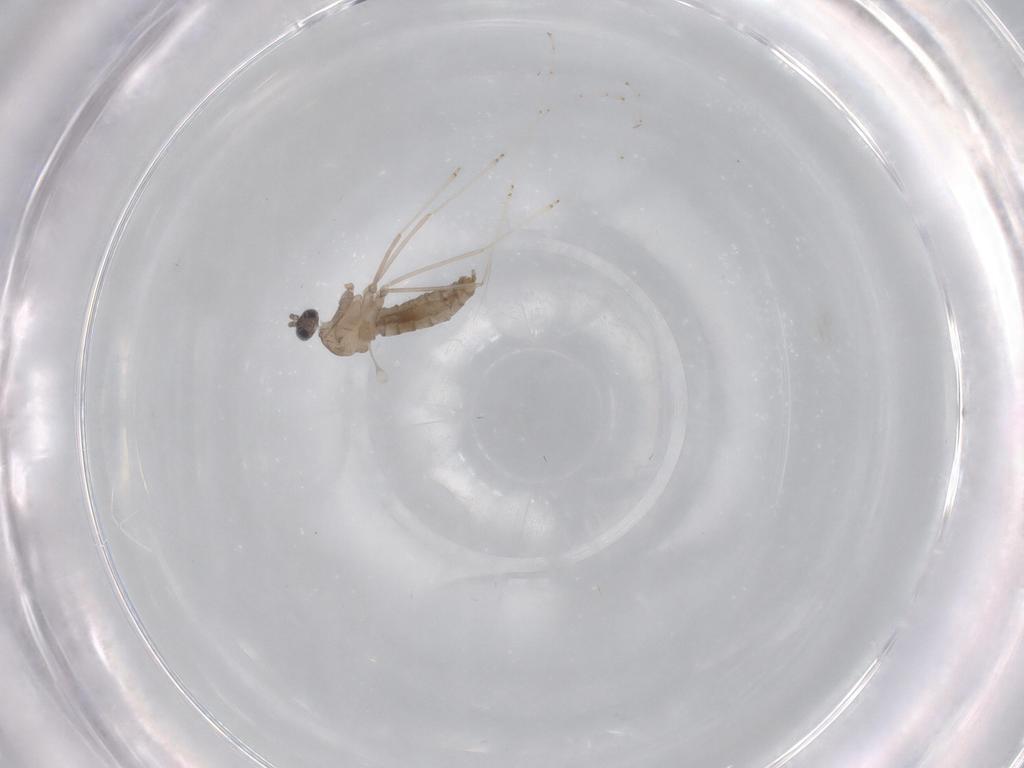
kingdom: Animalia
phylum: Arthropoda
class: Insecta
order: Diptera
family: Cecidomyiidae
